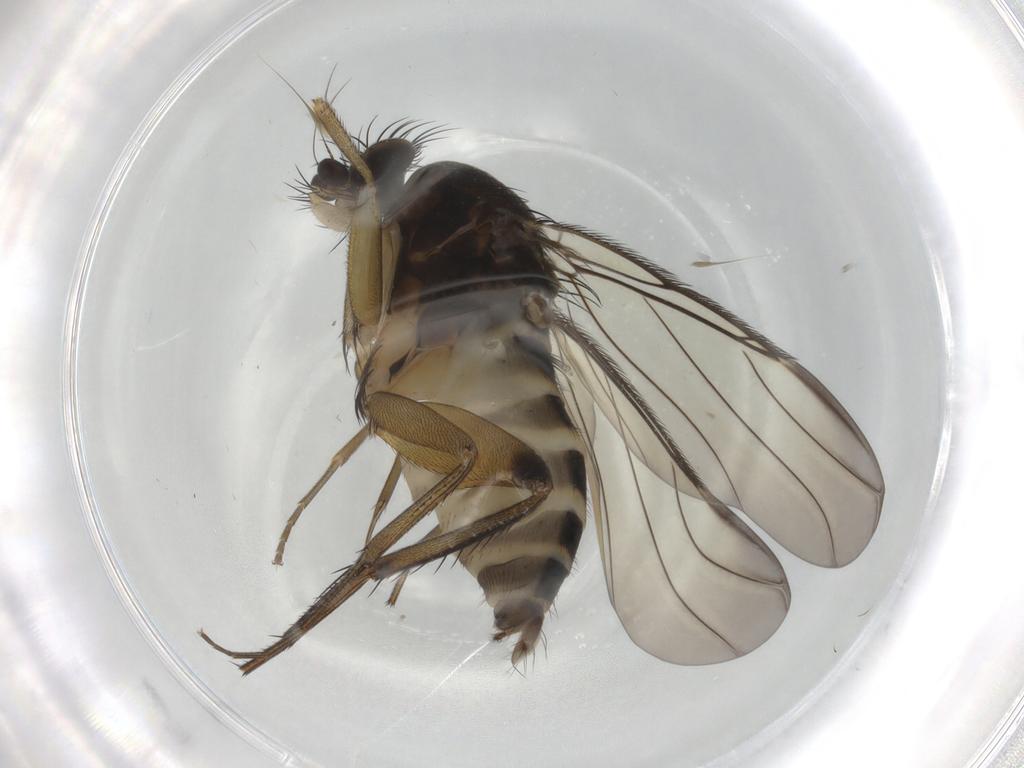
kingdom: Animalia
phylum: Arthropoda
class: Insecta
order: Diptera
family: Phoridae
